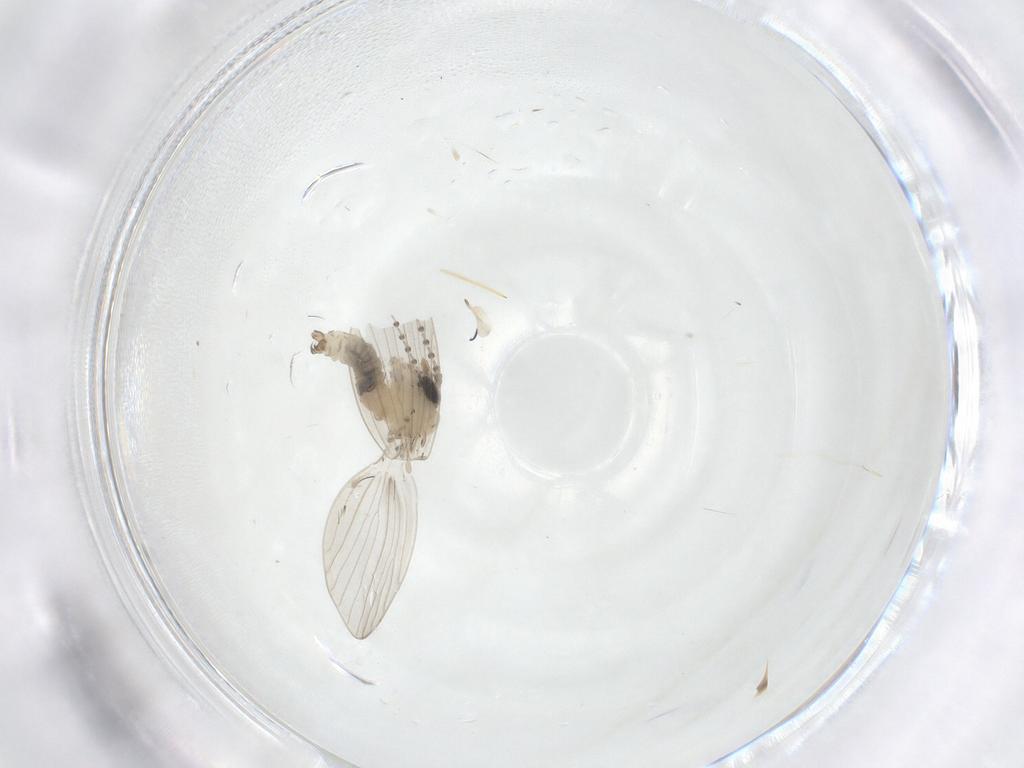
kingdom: Animalia
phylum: Arthropoda
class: Insecta
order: Diptera
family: Psychodidae
